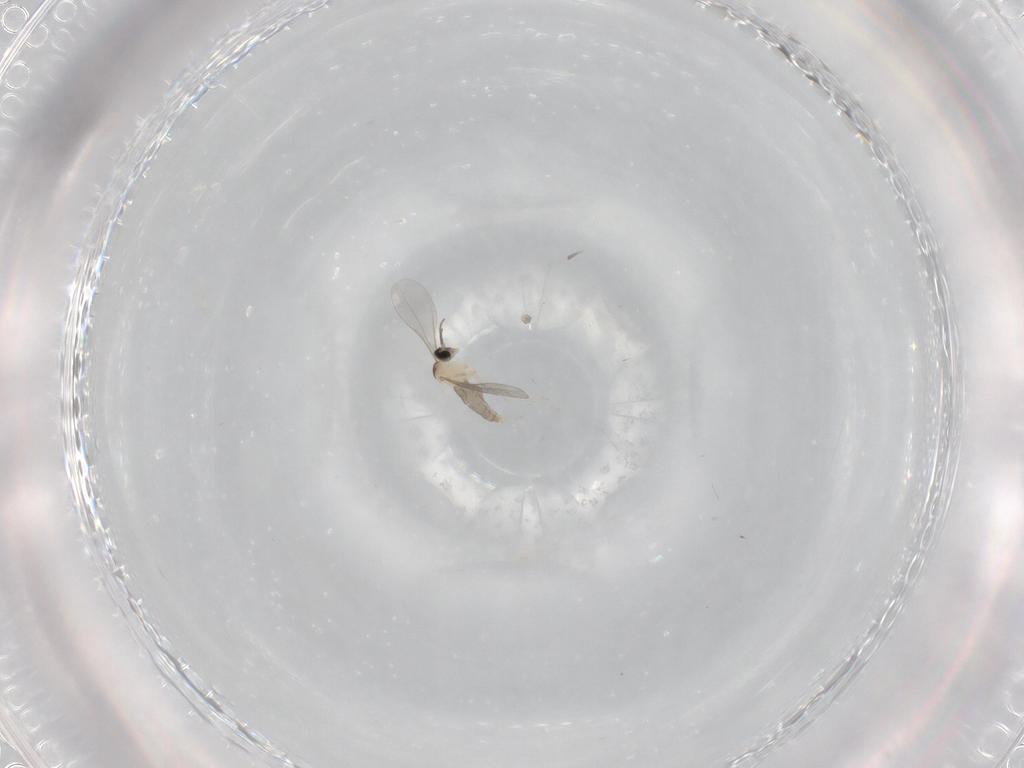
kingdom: Animalia
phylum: Arthropoda
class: Insecta
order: Diptera
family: Cecidomyiidae
